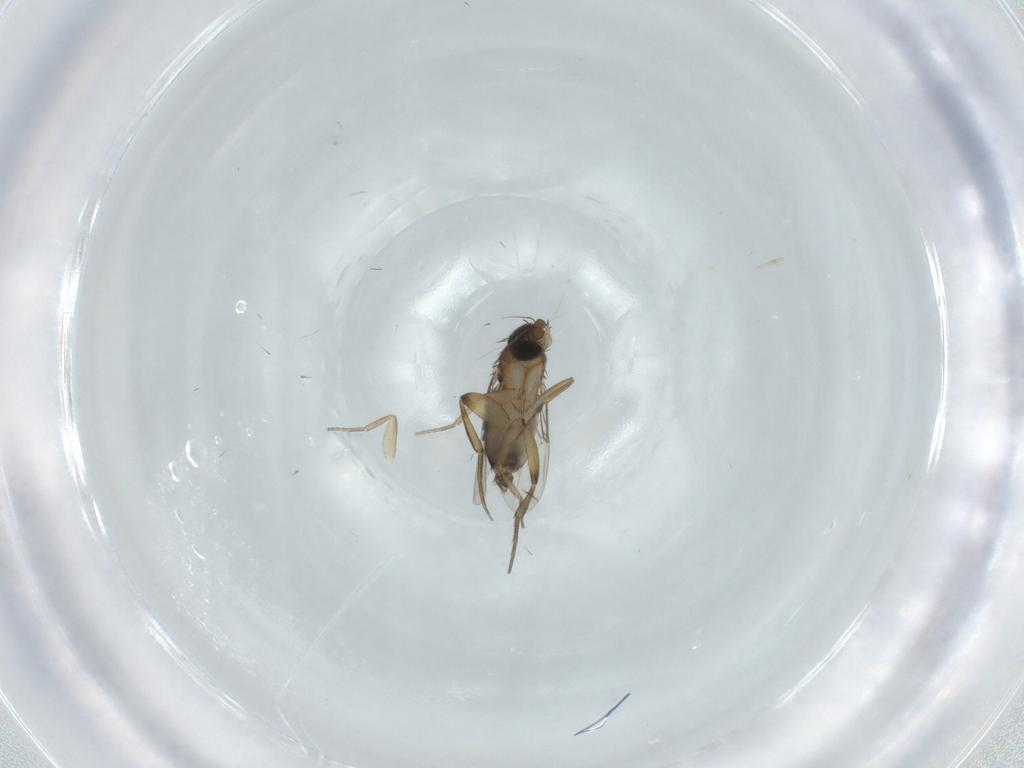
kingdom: Animalia
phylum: Arthropoda
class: Insecta
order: Diptera
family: Phoridae
